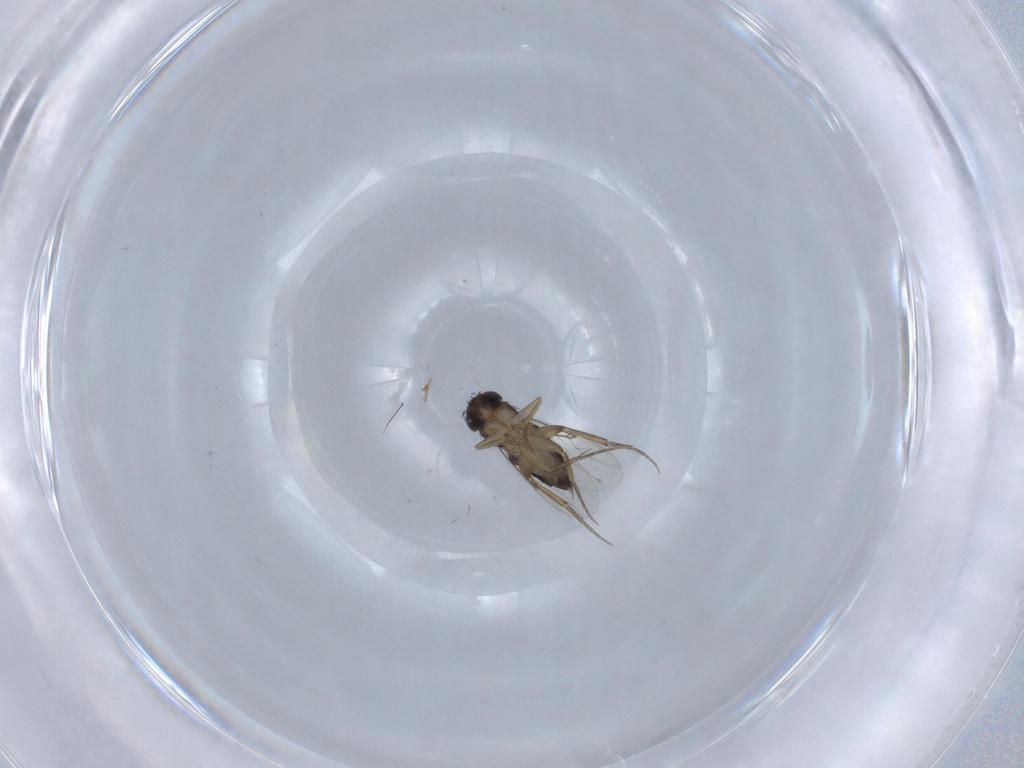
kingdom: Animalia
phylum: Arthropoda
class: Insecta
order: Diptera
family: Phoridae
